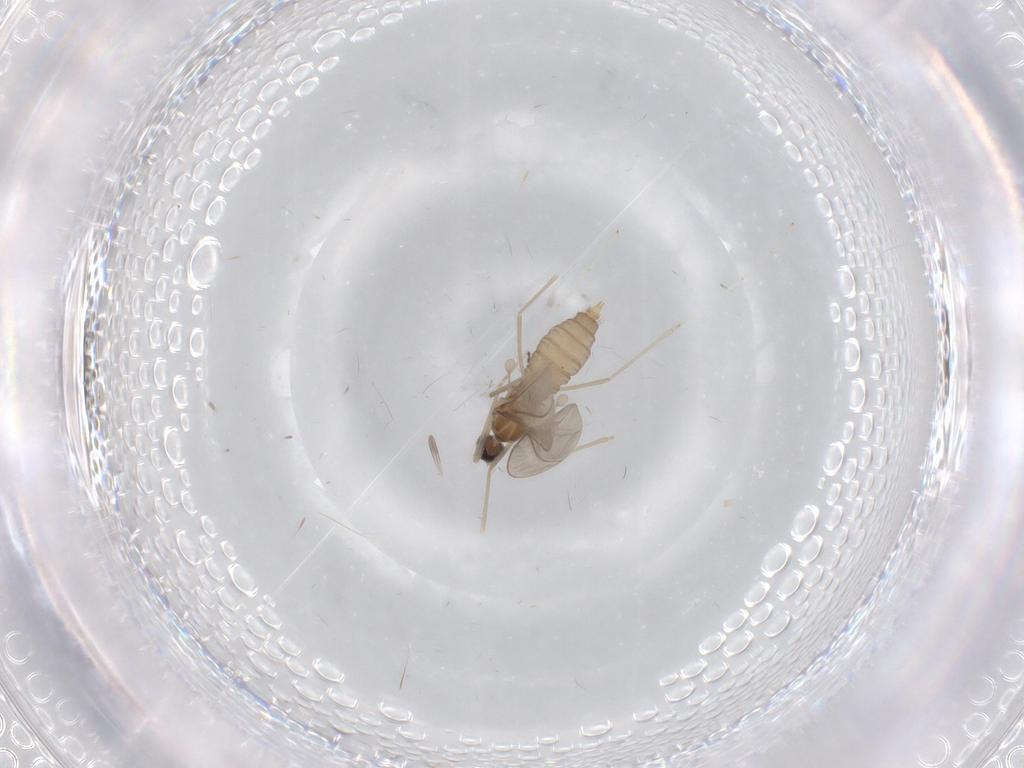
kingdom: Animalia
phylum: Arthropoda
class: Insecta
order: Diptera
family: Cecidomyiidae
